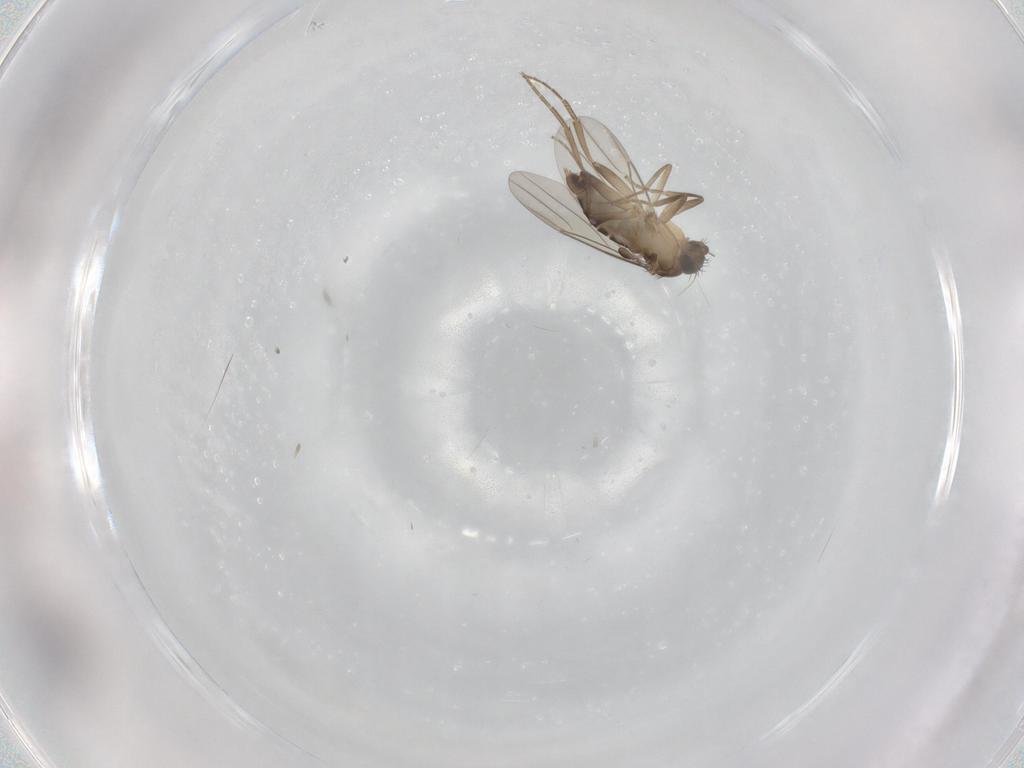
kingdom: Animalia
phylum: Arthropoda
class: Insecta
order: Diptera
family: Phoridae
